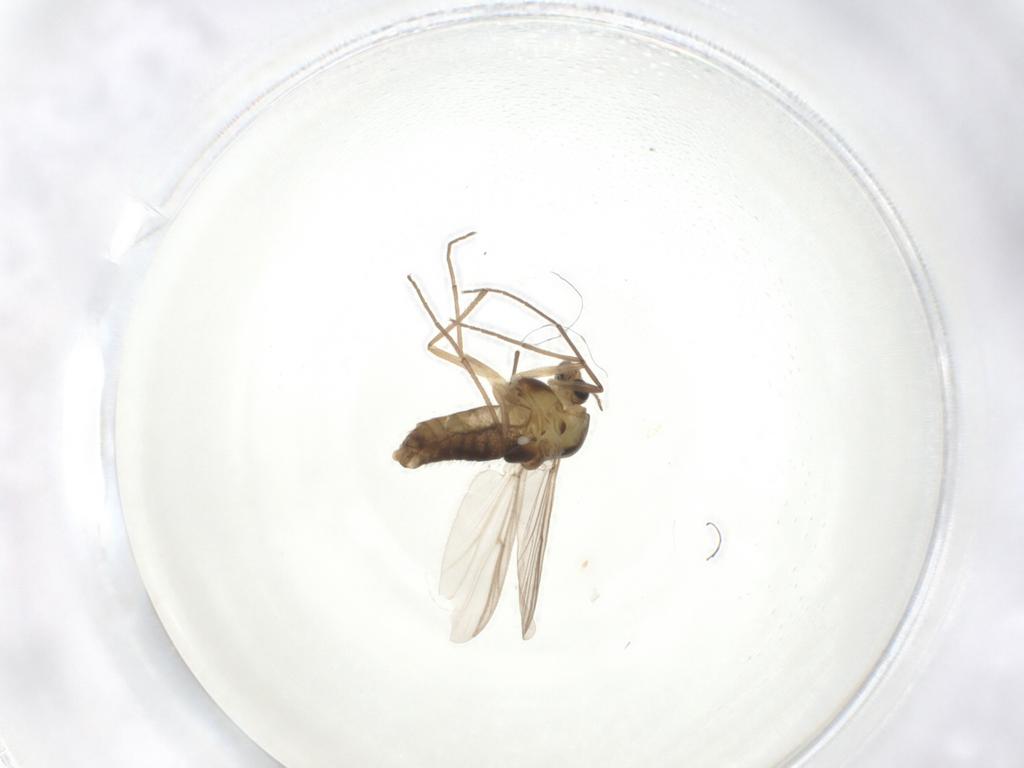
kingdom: Animalia
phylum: Arthropoda
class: Insecta
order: Diptera
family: Chironomidae
